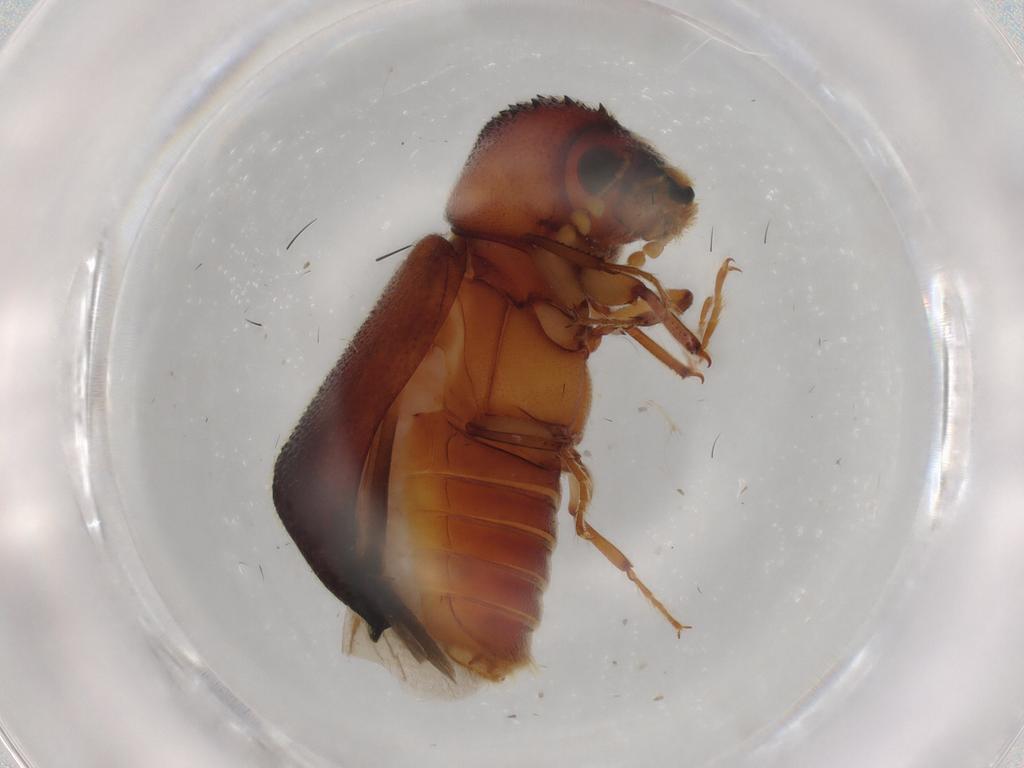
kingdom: Animalia
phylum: Arthropoda
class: Insecta
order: Coleoptera
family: Bostrichidae
